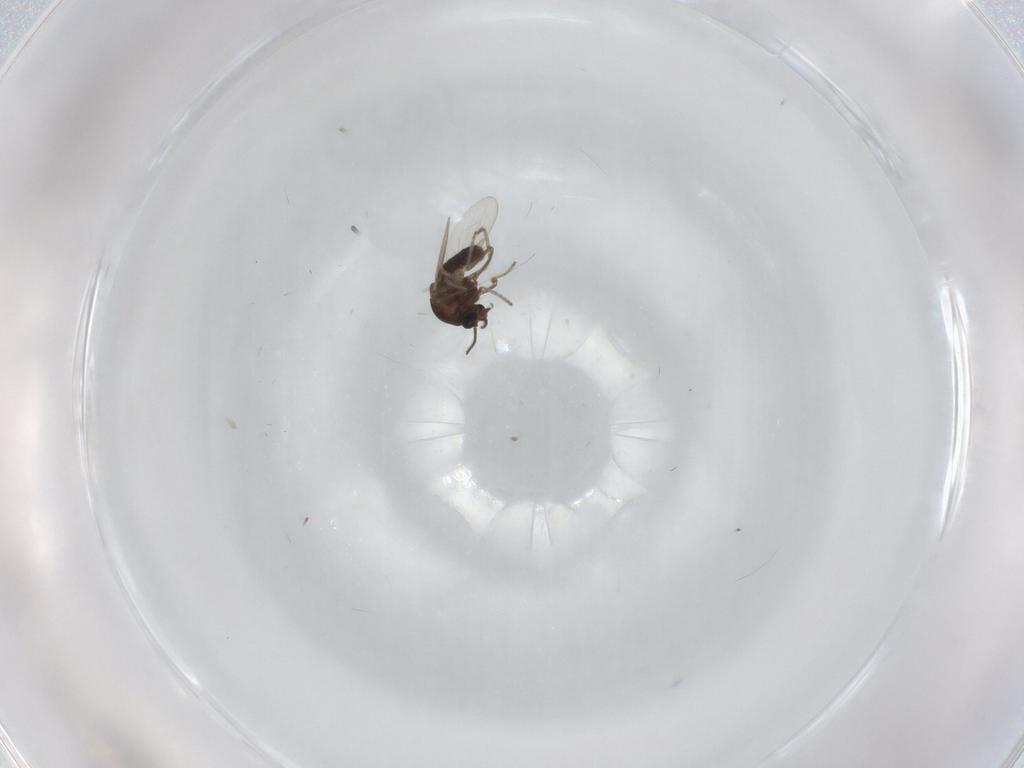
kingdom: Animalia
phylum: Arthropoda
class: Insecta
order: Diptera
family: Ceratopogonidae
